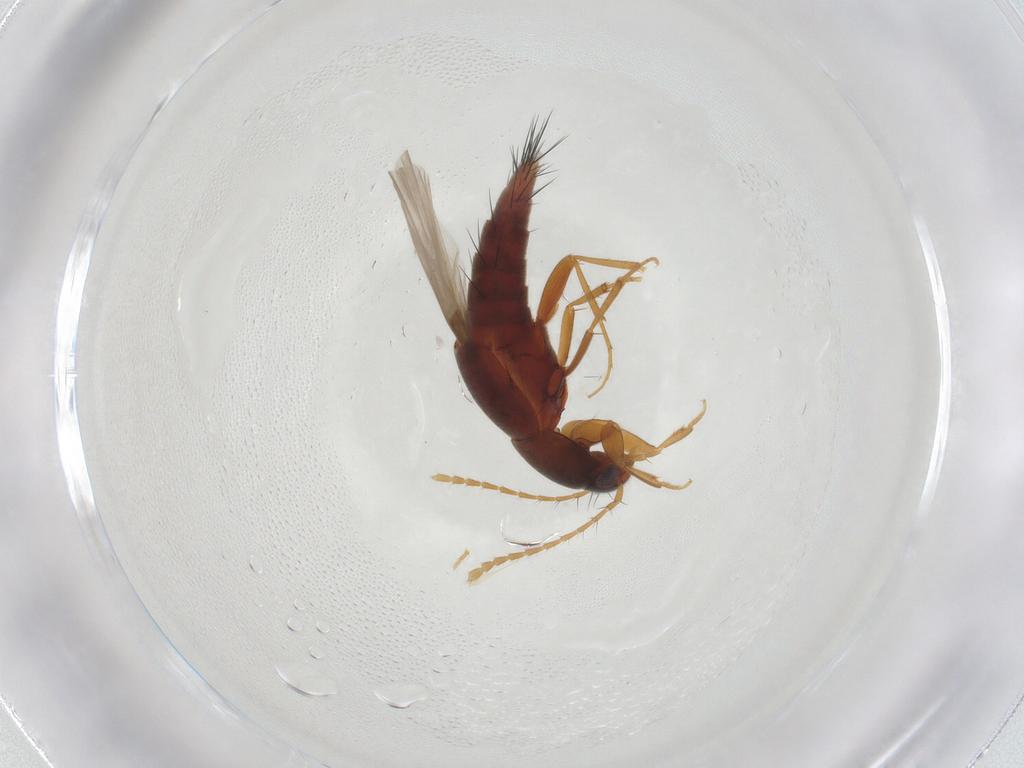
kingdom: Animalia
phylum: Arthropoda
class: Insecta
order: Coleoptera
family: Staphylinidae
